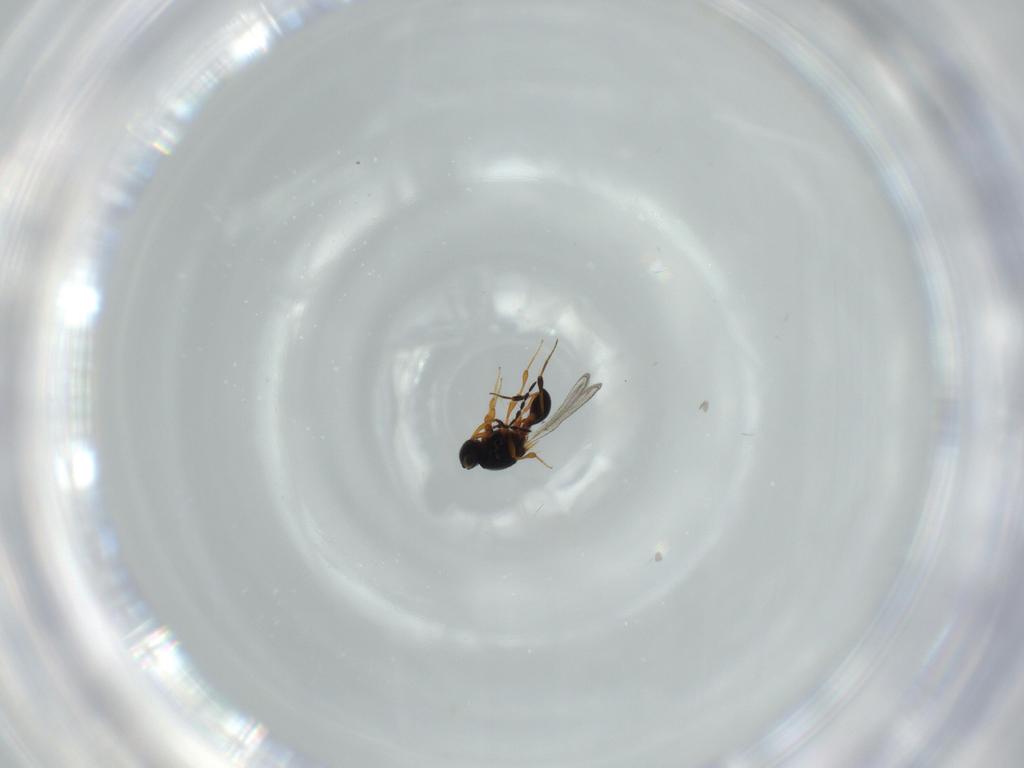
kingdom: Animalia
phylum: Arthropoda
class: Insecta
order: Hymenoptera
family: Platygastridae
